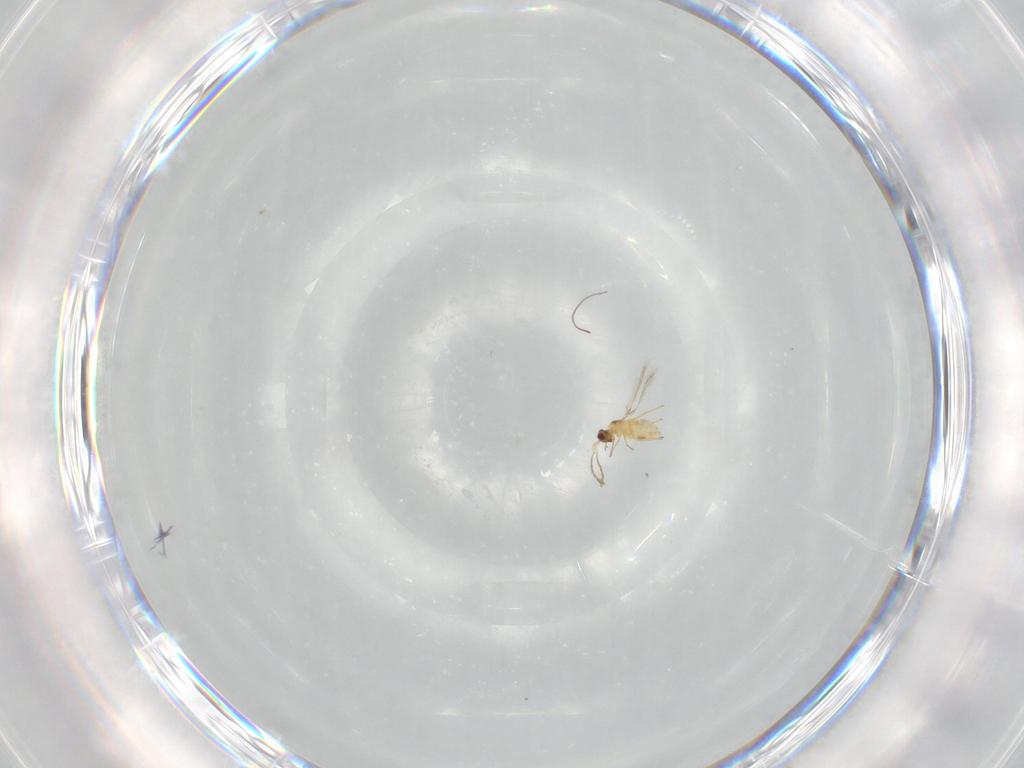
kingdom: Animalia
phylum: Arthropoda
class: Insecta
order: Hymenoptera
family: Mymaridae
